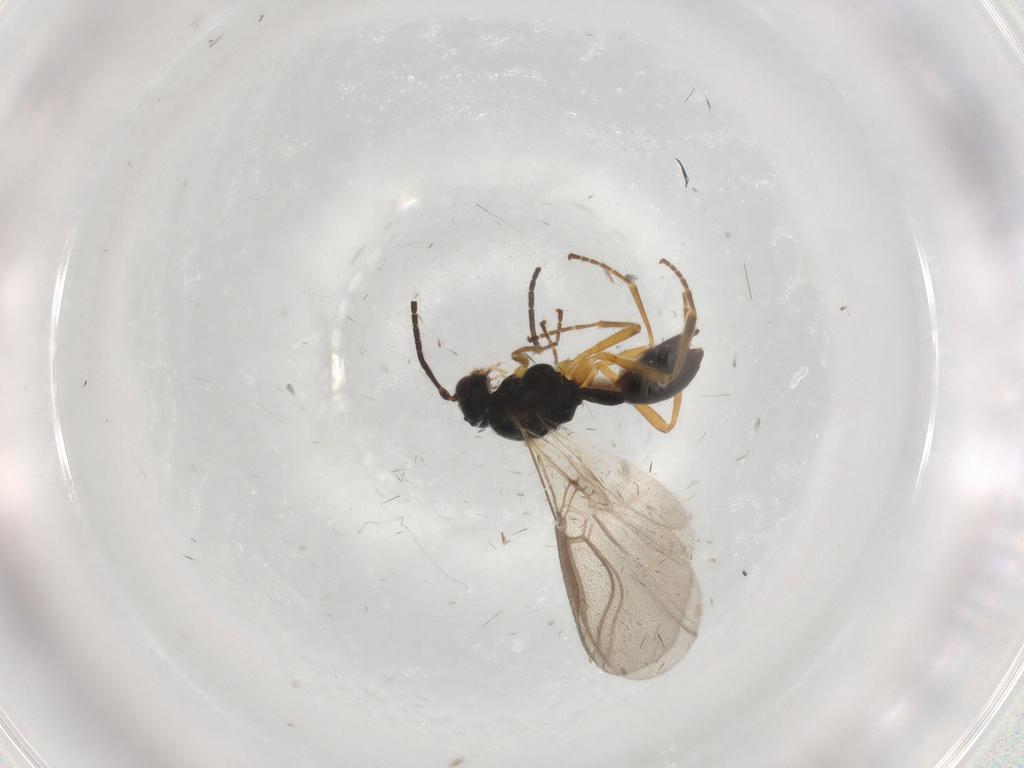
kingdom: Animalia
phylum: Arthropoda
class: Insecta
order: Hymenoptera
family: Braconidae
